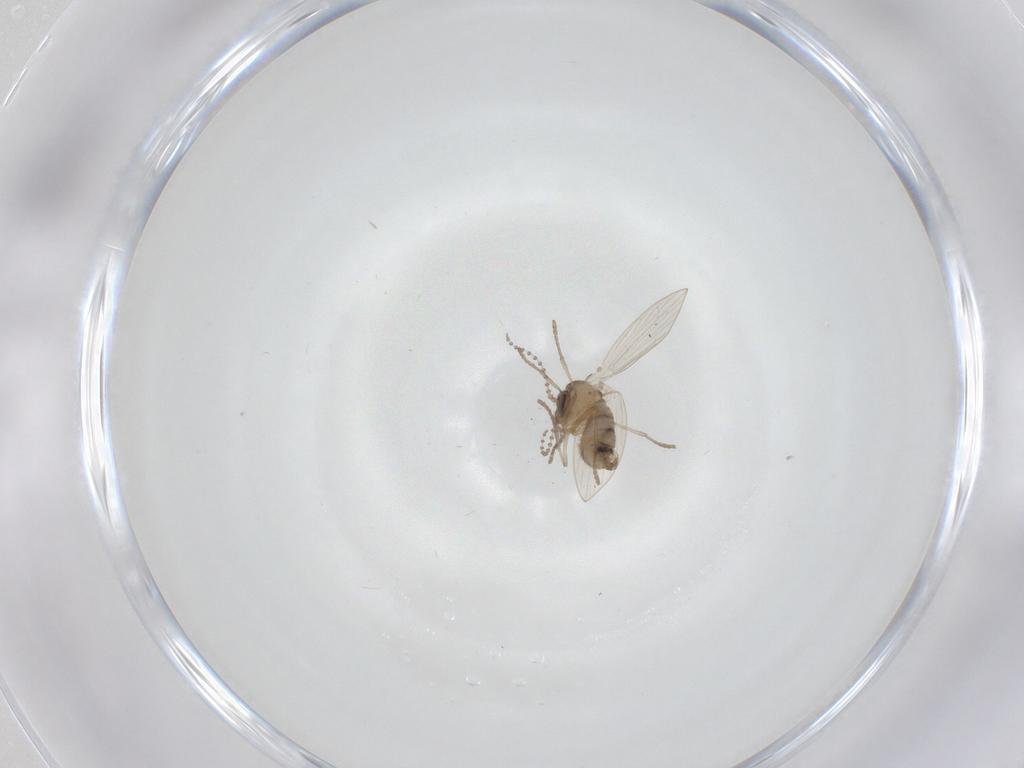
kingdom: Animalia
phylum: Arthropoda
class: Insecta
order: Diptera
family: Psychodidae
